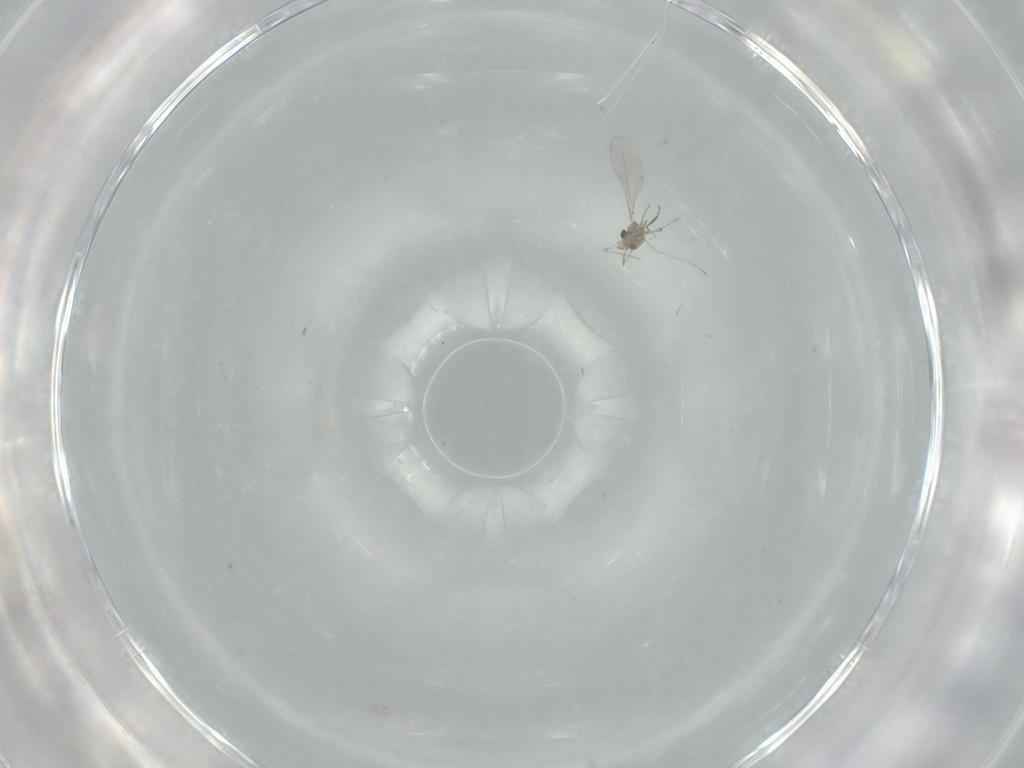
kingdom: Animalia
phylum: Arthropoda
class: Insecta
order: Diptera
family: Cecidomyiidae
